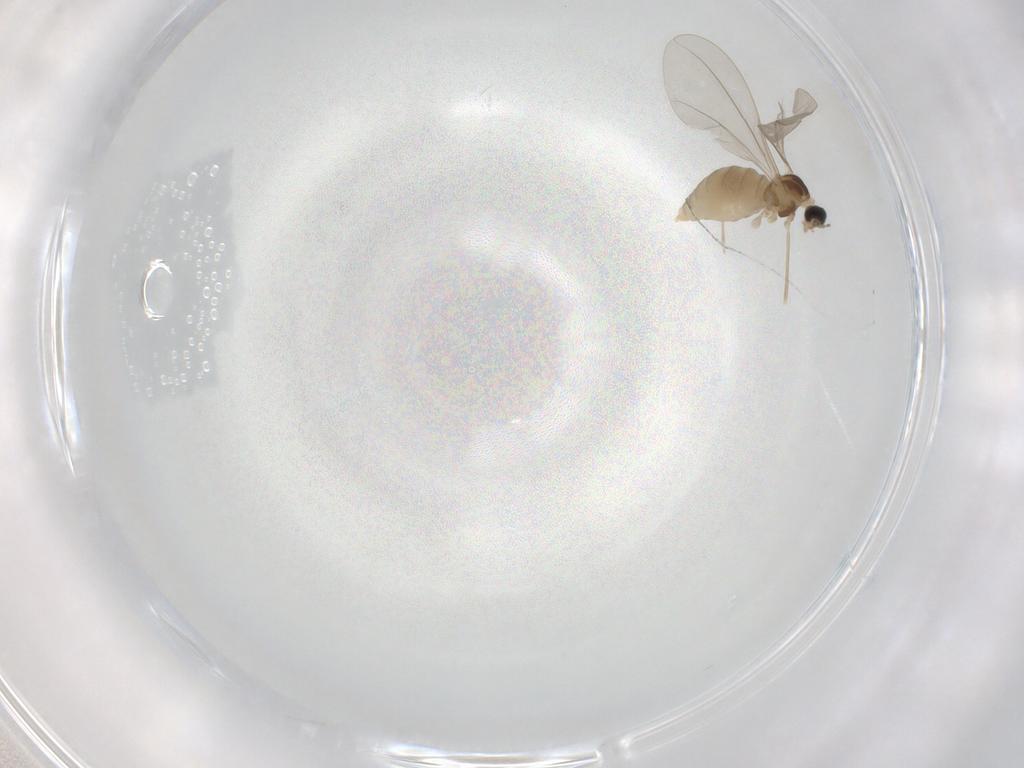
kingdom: Animalia
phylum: Arthropoda
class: Insecta
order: Diptera
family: Cecidomyiidae
